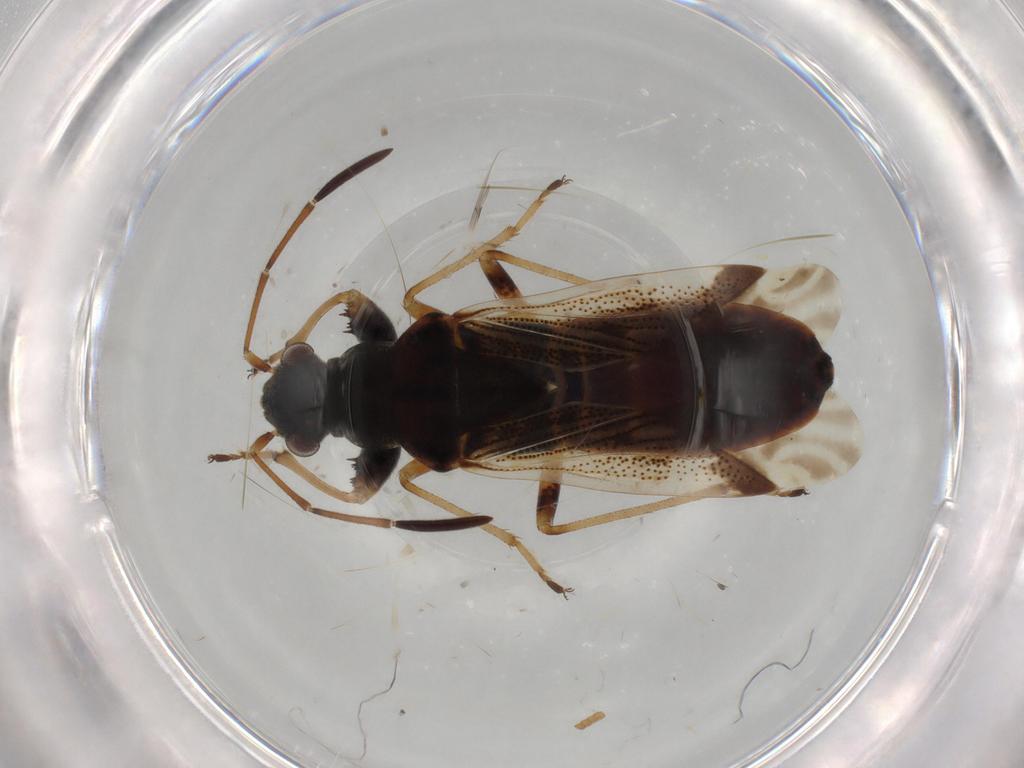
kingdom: Animalia
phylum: Arthropoda
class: Insecta
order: Hemiptera
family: Rhyparochromidae
